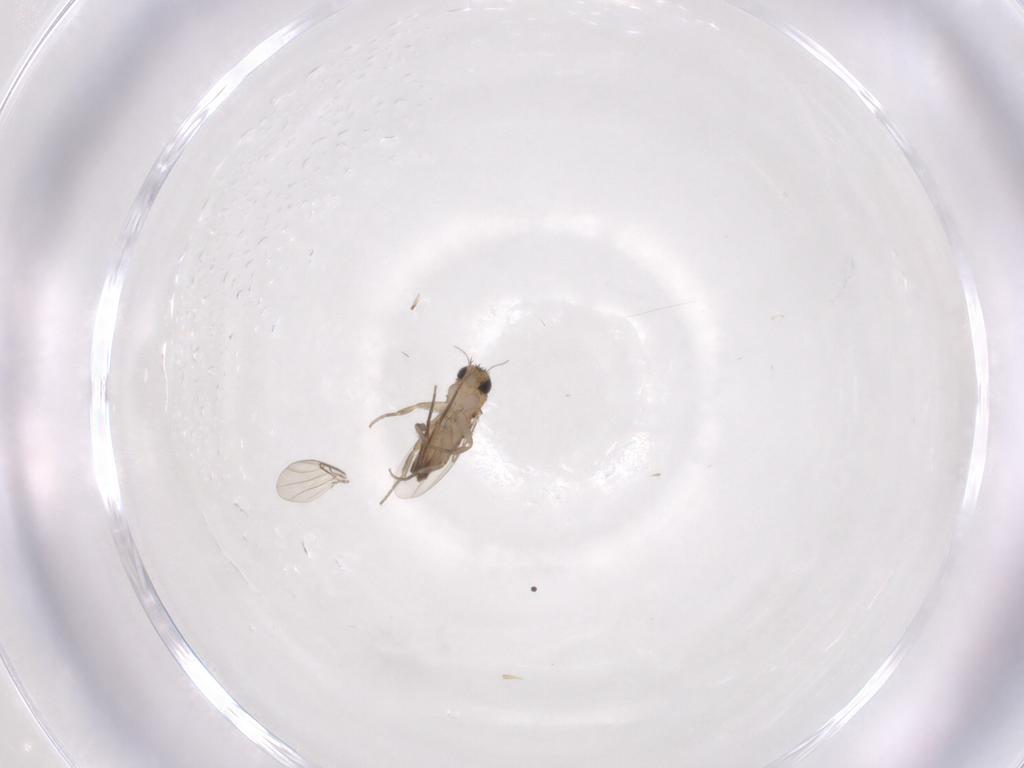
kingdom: Animalia
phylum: Arthropoda
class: Insecta
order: Diptera
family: Phoridae
